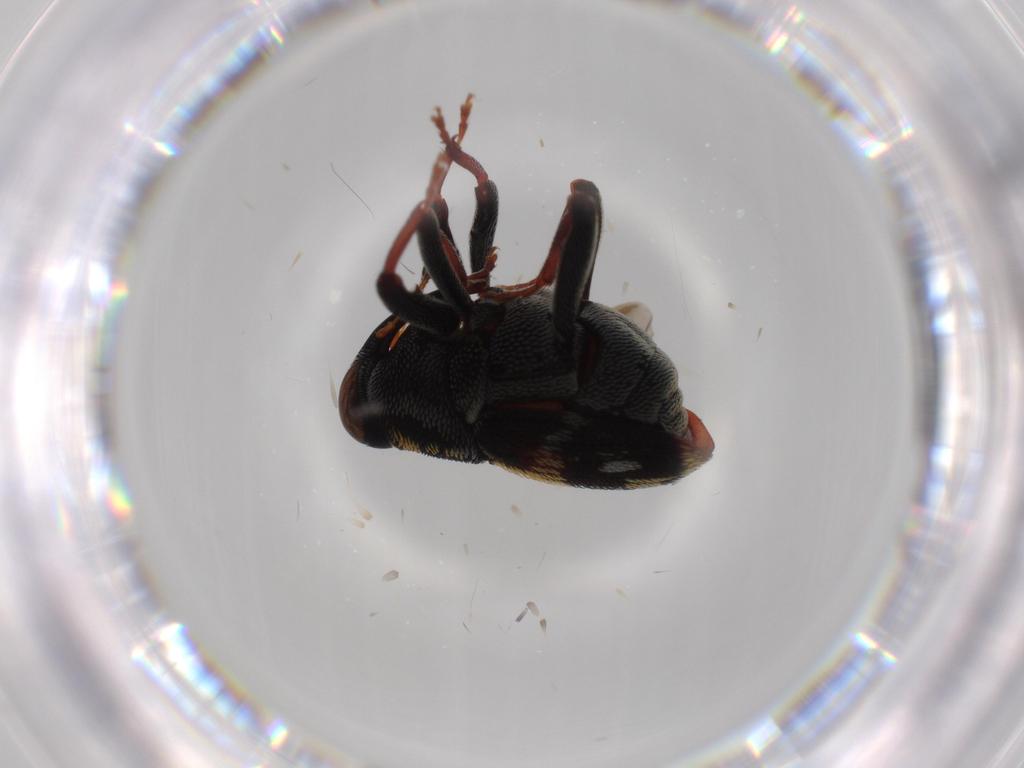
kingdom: Animalia
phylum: Arthropoda
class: Insecta
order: Coleoptera
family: Curculionidae
